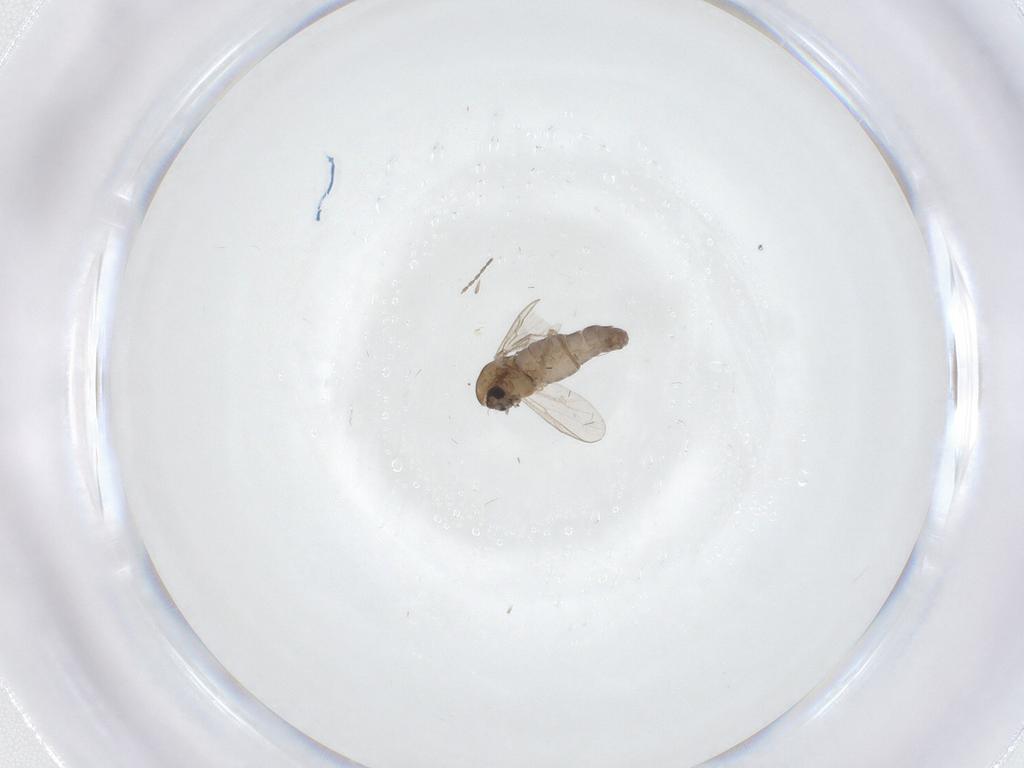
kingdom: Animalia
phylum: Arthropoda
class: Insecta
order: Diptera
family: Chironomidae
